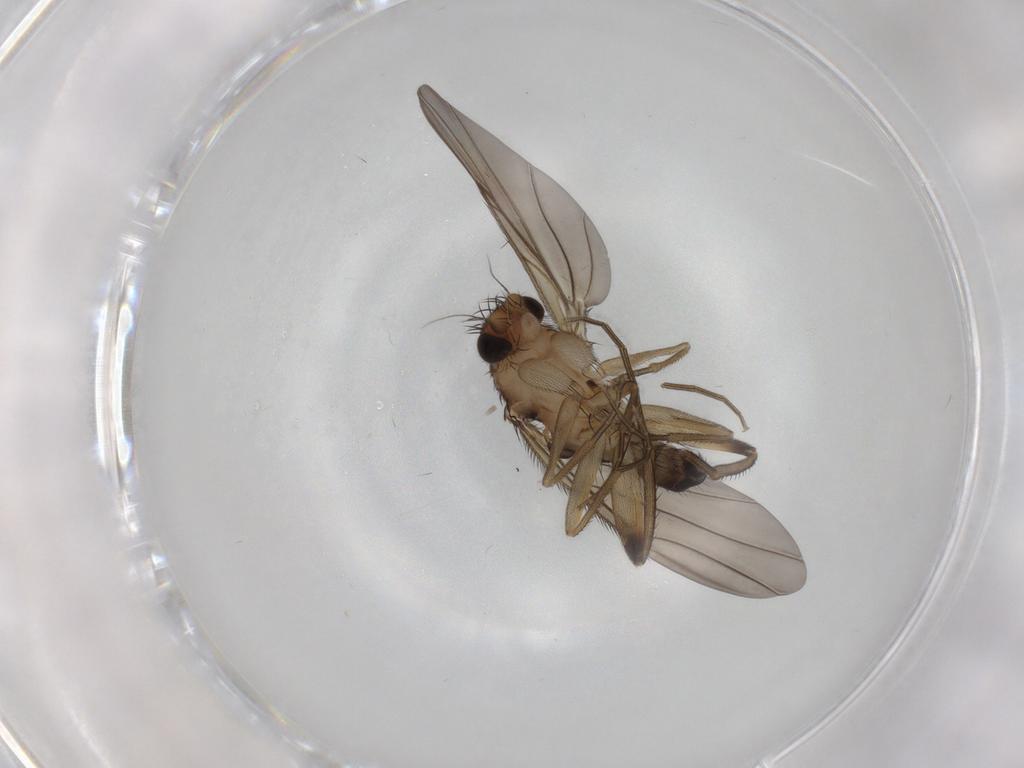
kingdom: Animalia
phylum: Arthropoda
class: Insecta
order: Diptera
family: Phoridae
